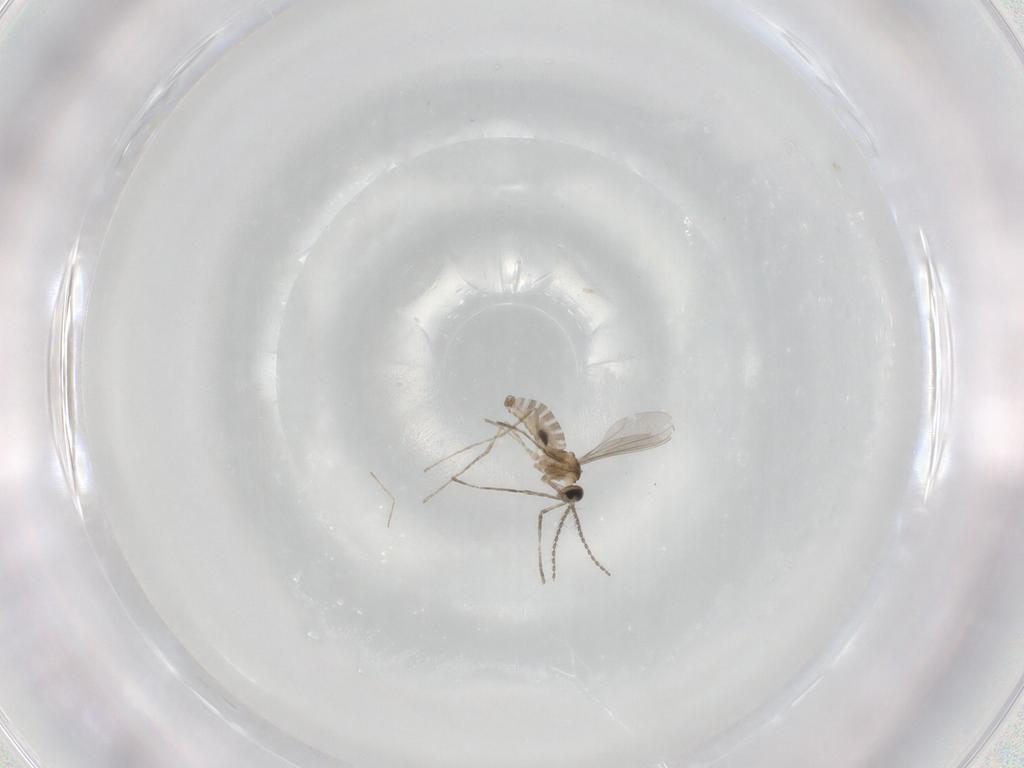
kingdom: Animalia
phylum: Arthropoda
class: Insecta
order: Diptera
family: Cecidomyiidae
